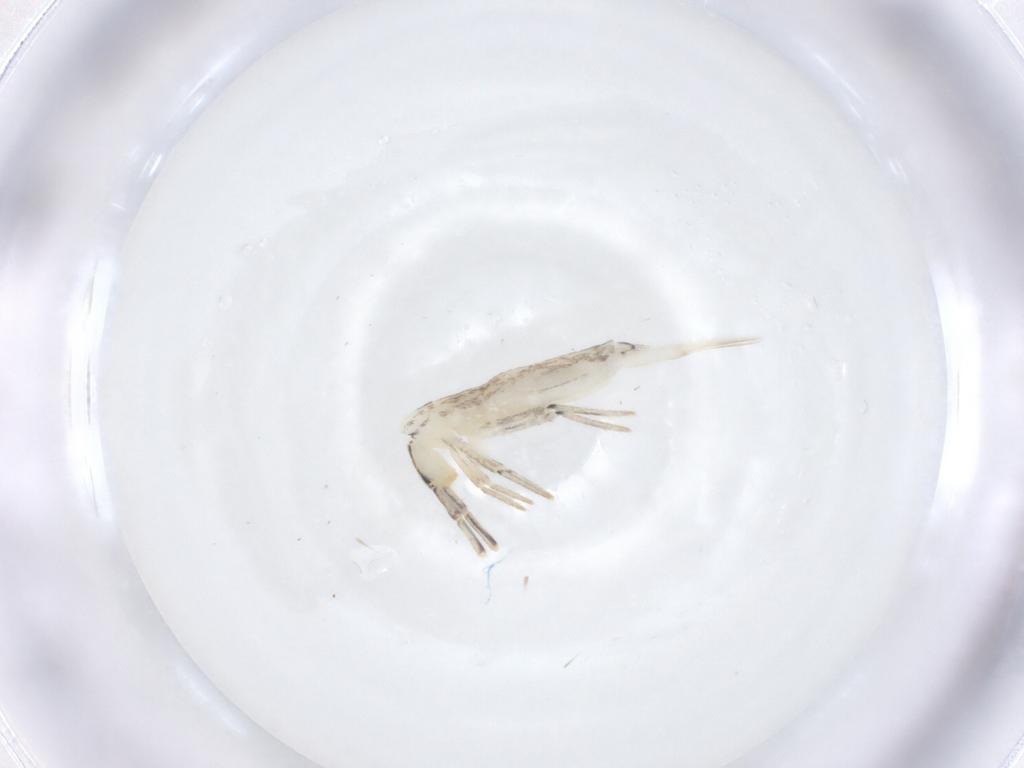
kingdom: Animalia
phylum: Arthropoda
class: Collembola
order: Entomobryomorpha
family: Entomobryidae
